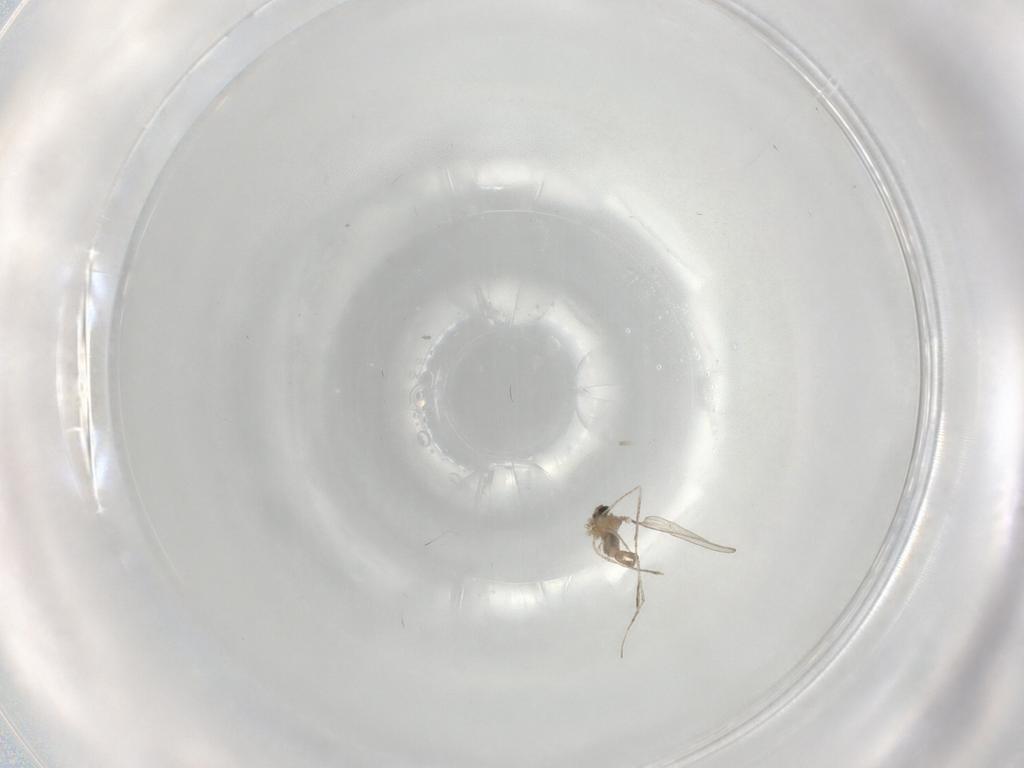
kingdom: Animalia
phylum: Arthropoda
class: Insecta
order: Diptera
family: Cecidomyiidae
